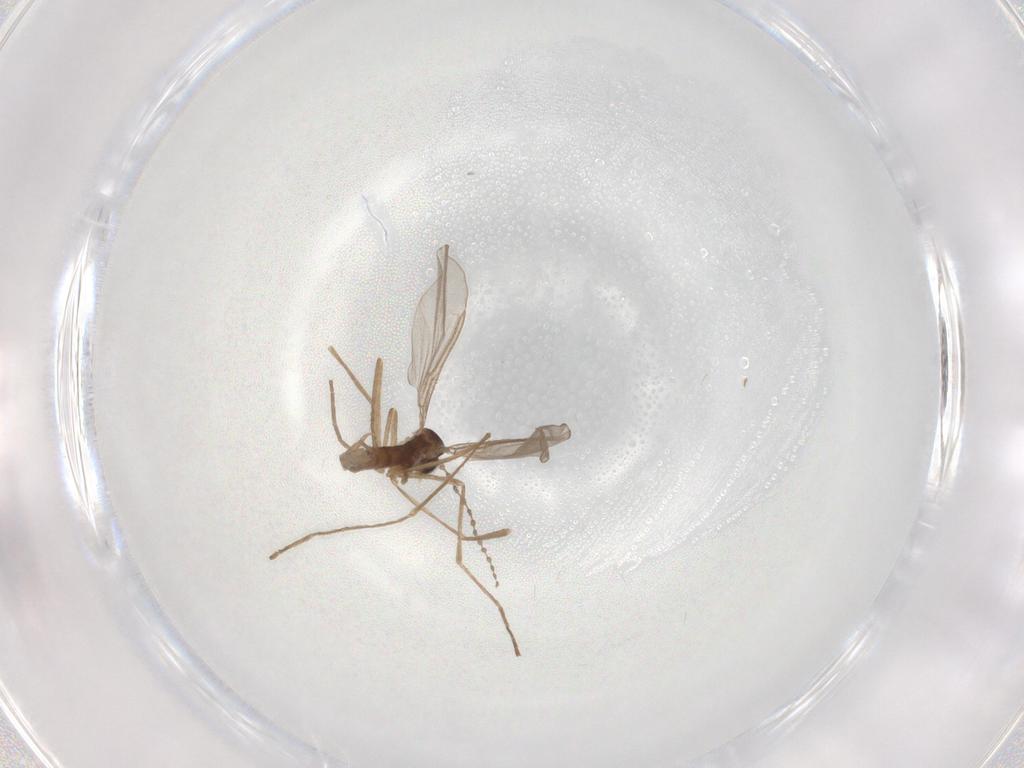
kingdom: Animalia
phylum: Arthropoda
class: Insecta
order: Diptera
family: Cecidomyiidae
